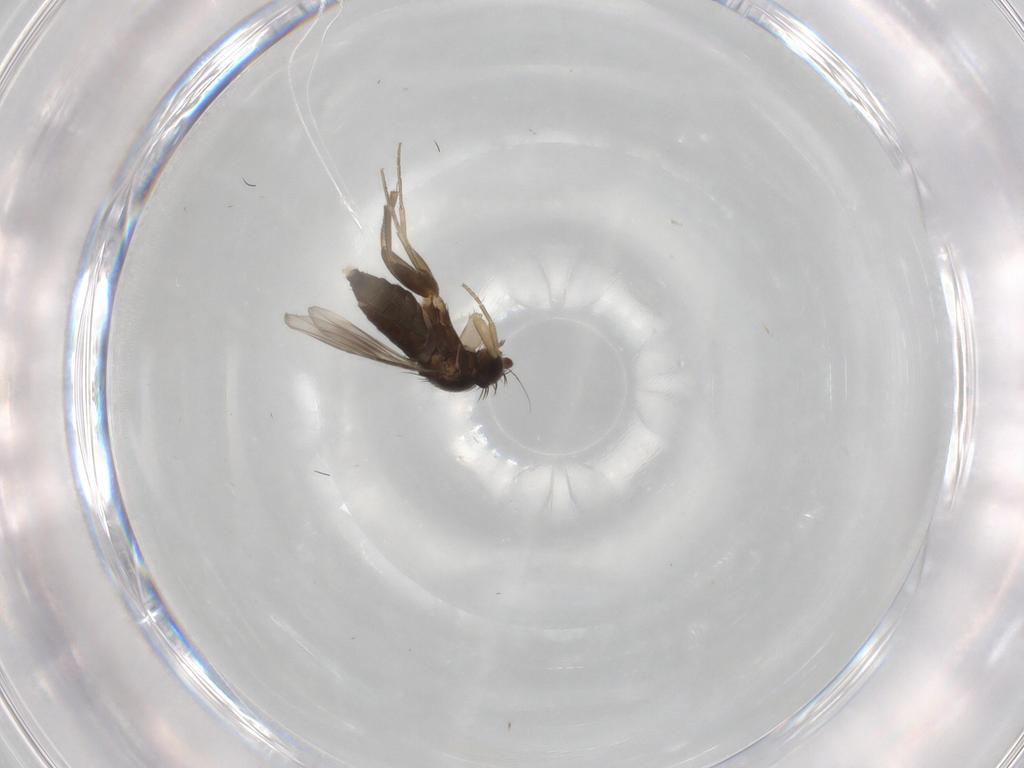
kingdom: Animalia
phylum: Arthropoda
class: Insecta
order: Diptera
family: Phoridae
